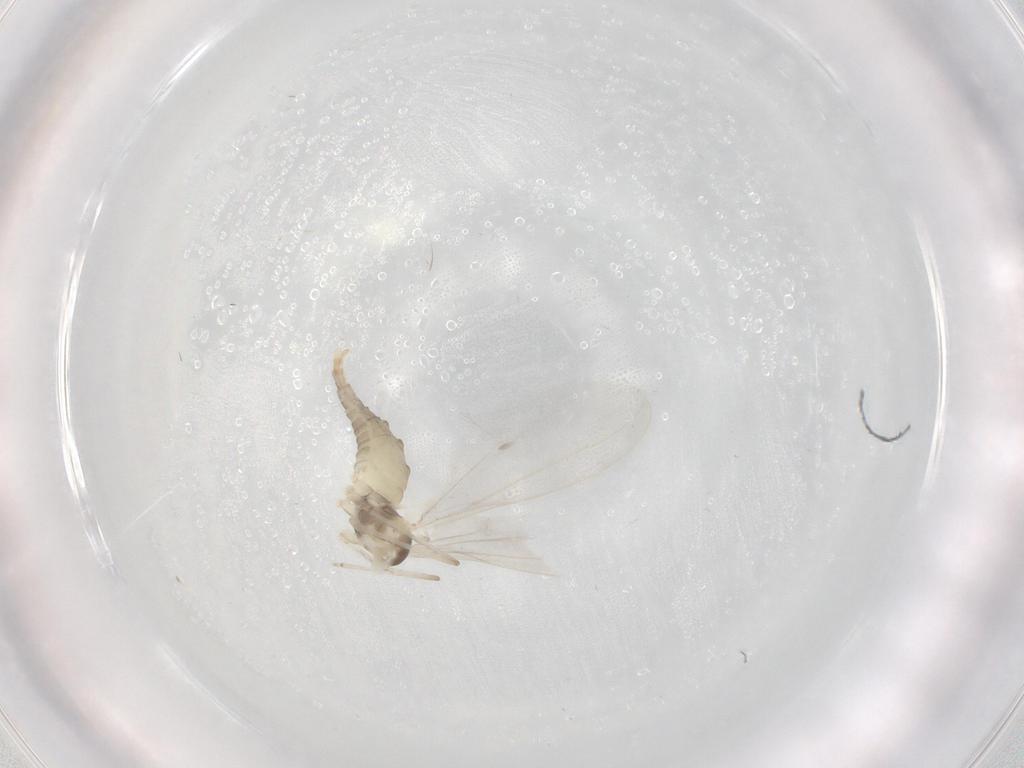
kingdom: Animalia
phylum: Arthropoda
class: Insecta
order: Diptera
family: Cecidomyiidae
